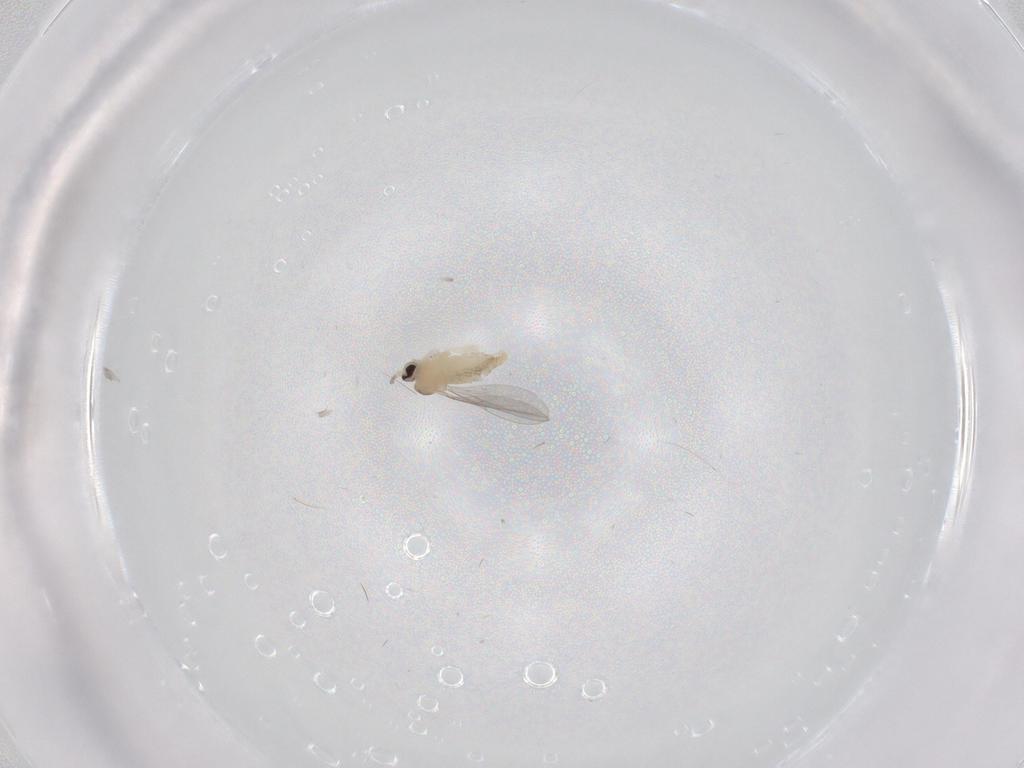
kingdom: Animalia
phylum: Arthropoda
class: Insecta
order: Diptera
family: Cecidomyiidae
